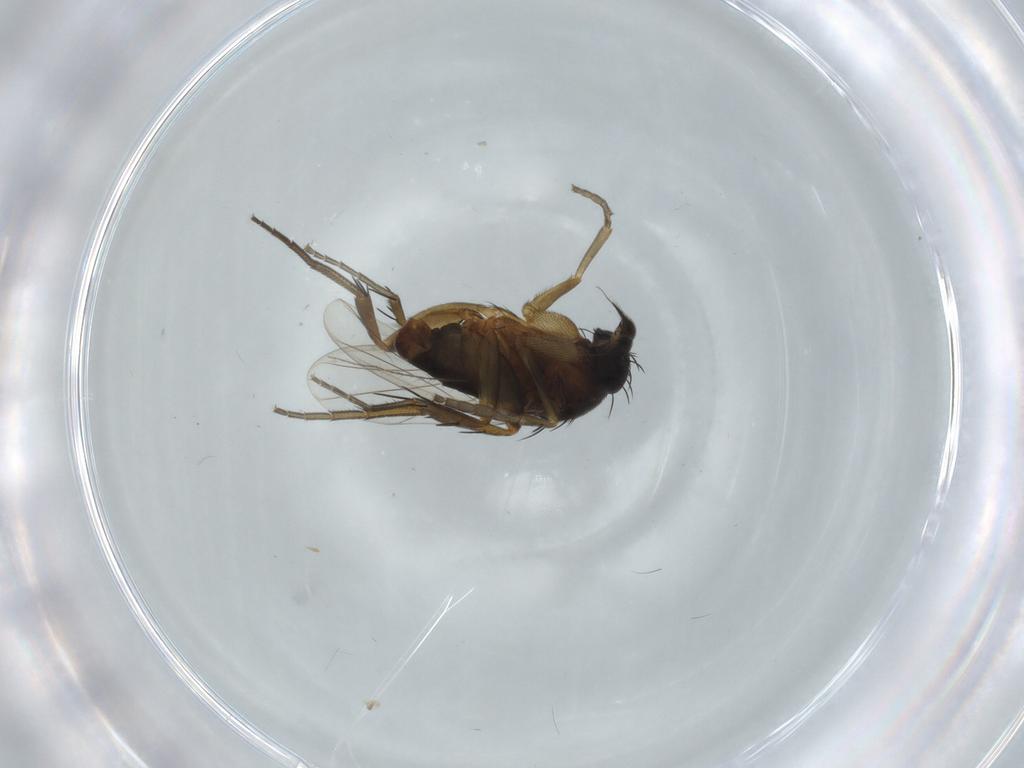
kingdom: Animalia
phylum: Arthropoda
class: Insecta
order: Diptera
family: Phoridae
